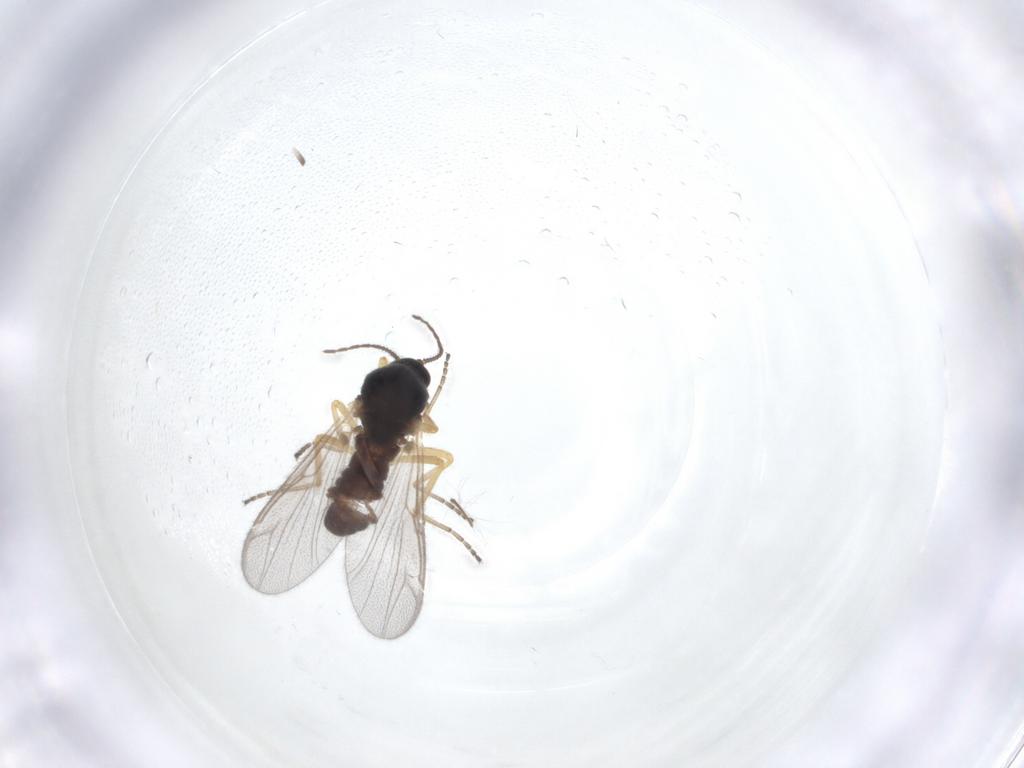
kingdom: Animalia
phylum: Arthropoda
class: Insecta
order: Diptera
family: Ceratopogonidae
